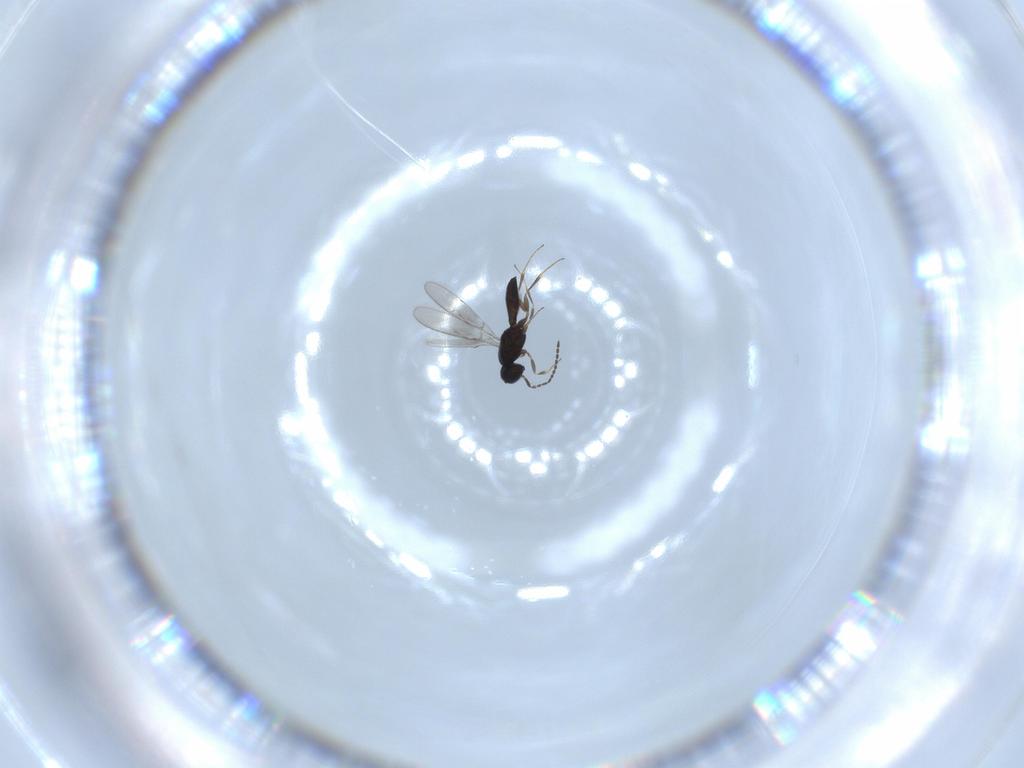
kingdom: Animalia
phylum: Arthropoda
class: Insecta
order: Hymenoptera
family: Scelionidae
